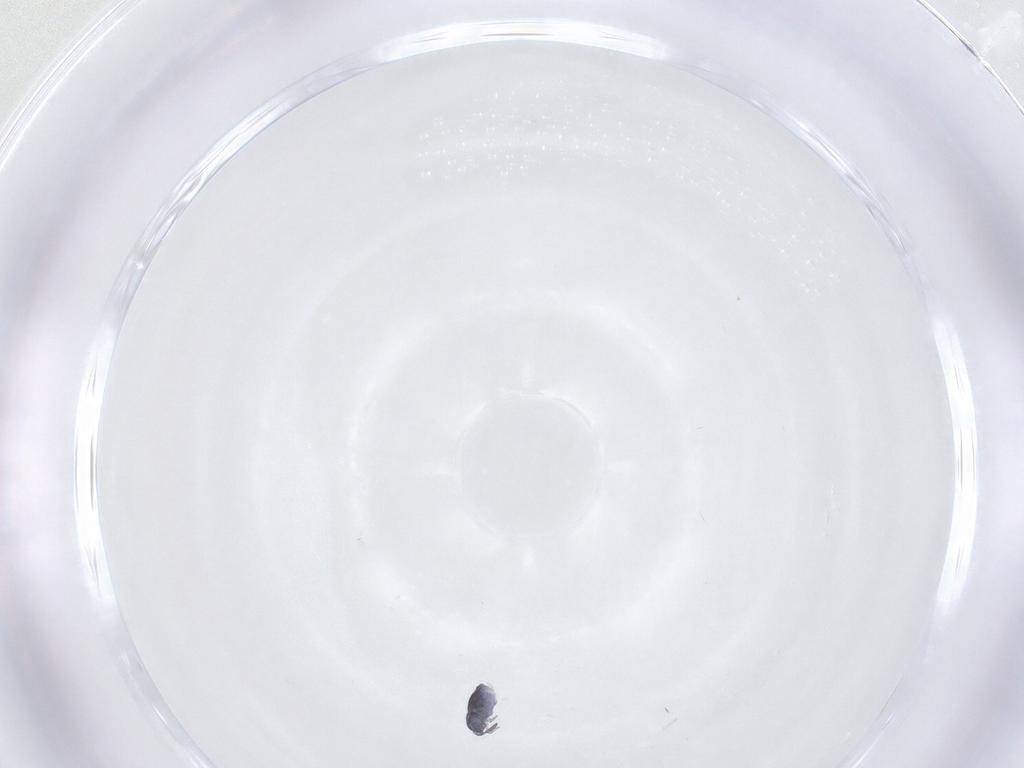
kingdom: Animalia
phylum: Arthropoda
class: Collembola
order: Symphypleona
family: Katiannidae
